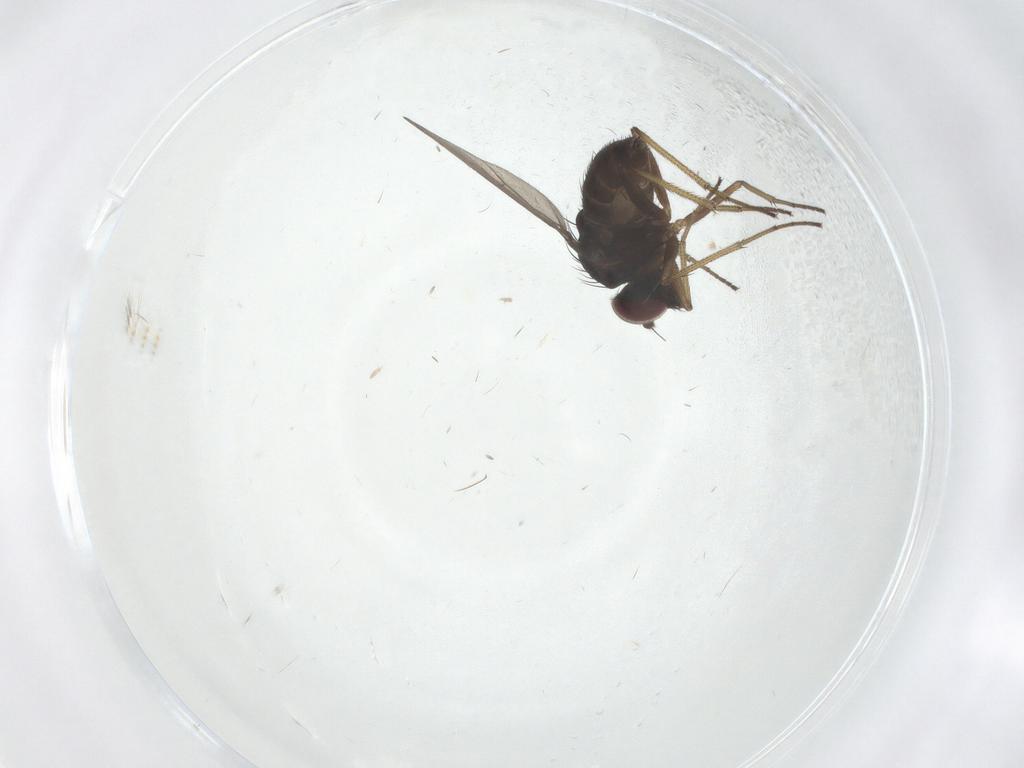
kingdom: Animalia
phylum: Arthropoda
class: Insecta
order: Diptera
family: Dolichopodidae
